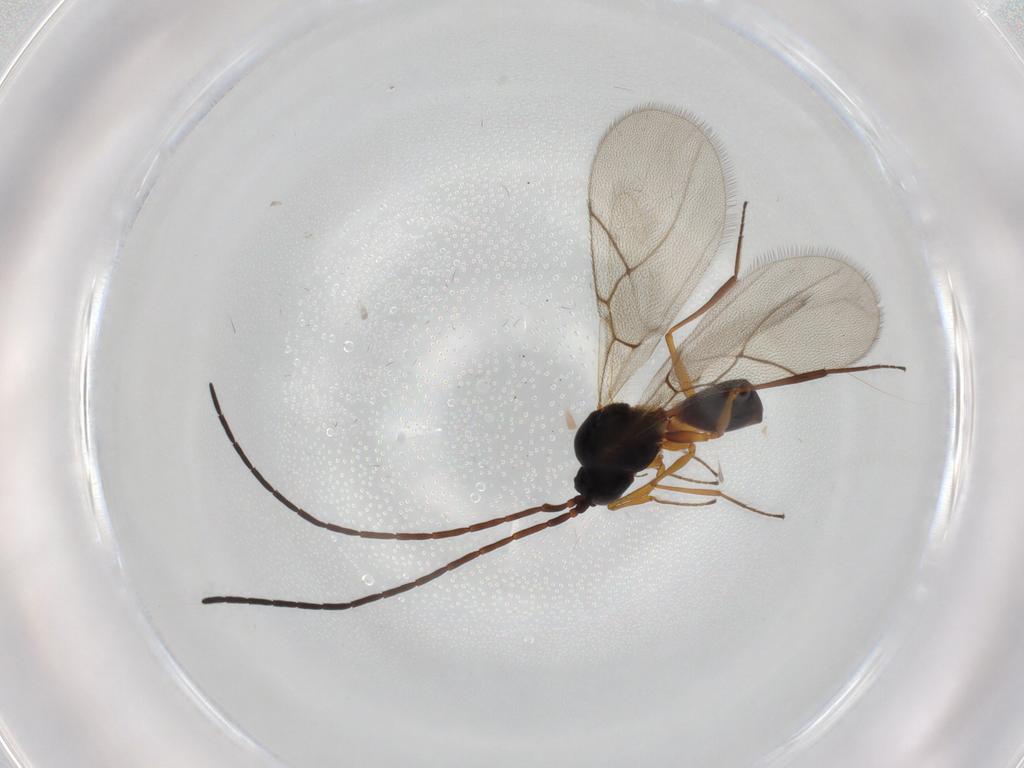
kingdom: Animalia
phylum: Arthropoda
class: Insecta
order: Hymenoptera
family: Figitidae
